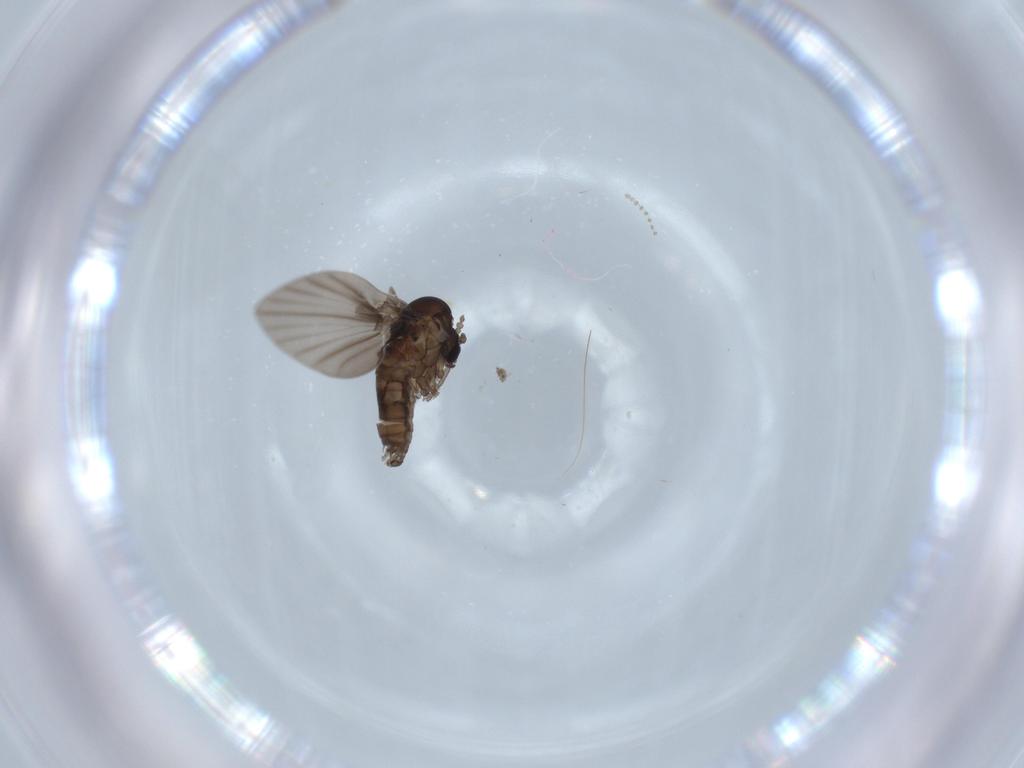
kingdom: Animalia
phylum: Arthropoda
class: Insecta
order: Diptera
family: Psychodidae
